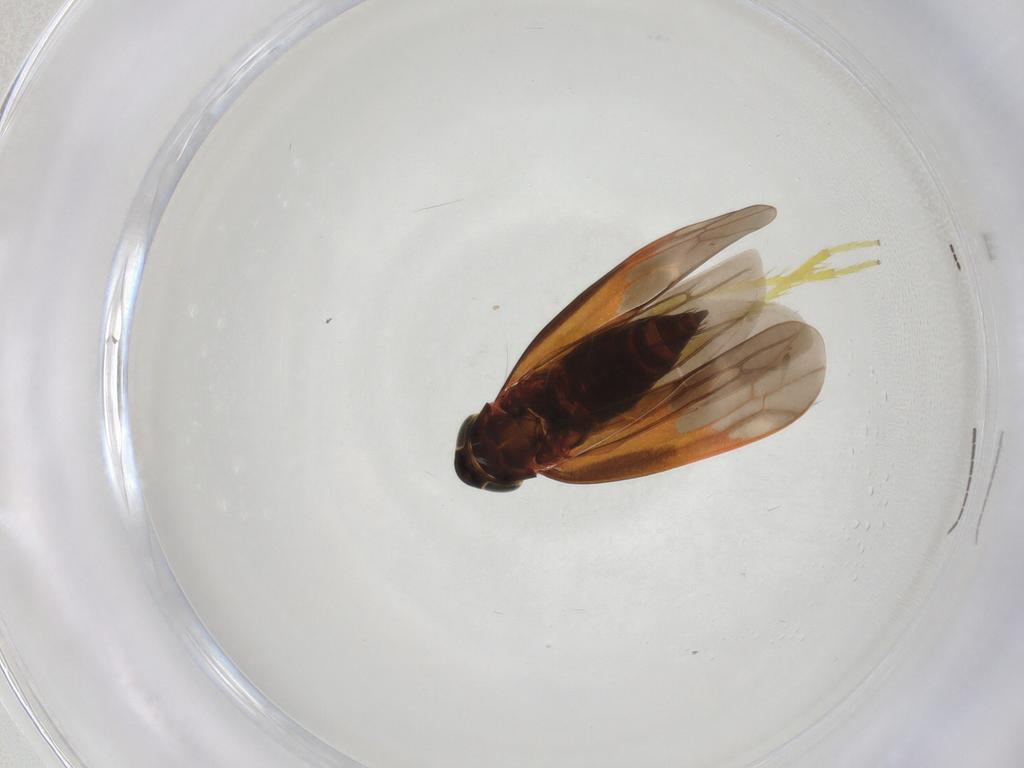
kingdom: Animalia
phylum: Arthropoda
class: Insecta
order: Hemiptera
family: Cicadellidae
